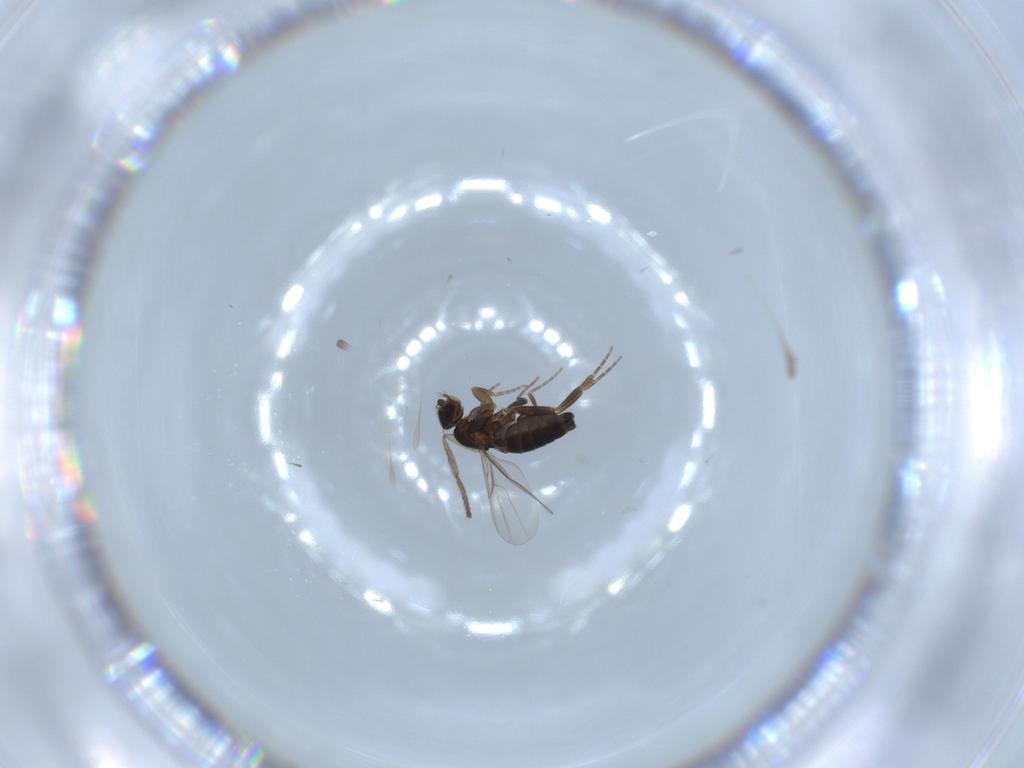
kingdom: Animalia
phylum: Arthropoda
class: Insecta
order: Diptera
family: Phoridae
